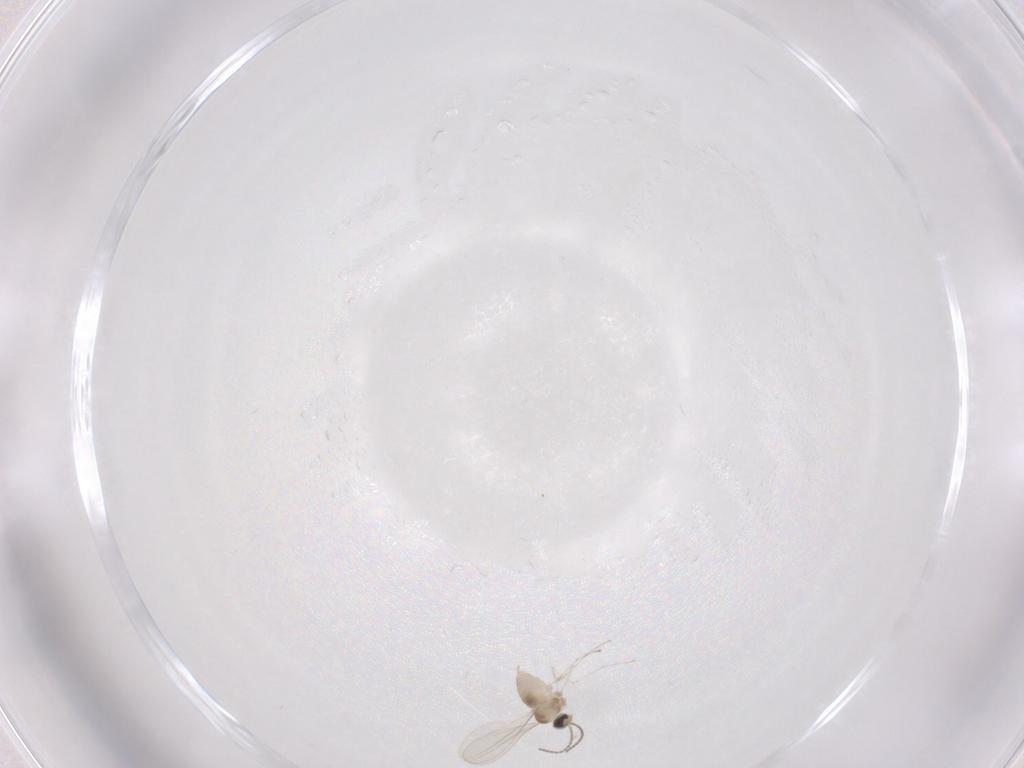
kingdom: Animalia
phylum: Arthropoda
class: Insecta
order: Diptera
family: Cecidomyiidae
